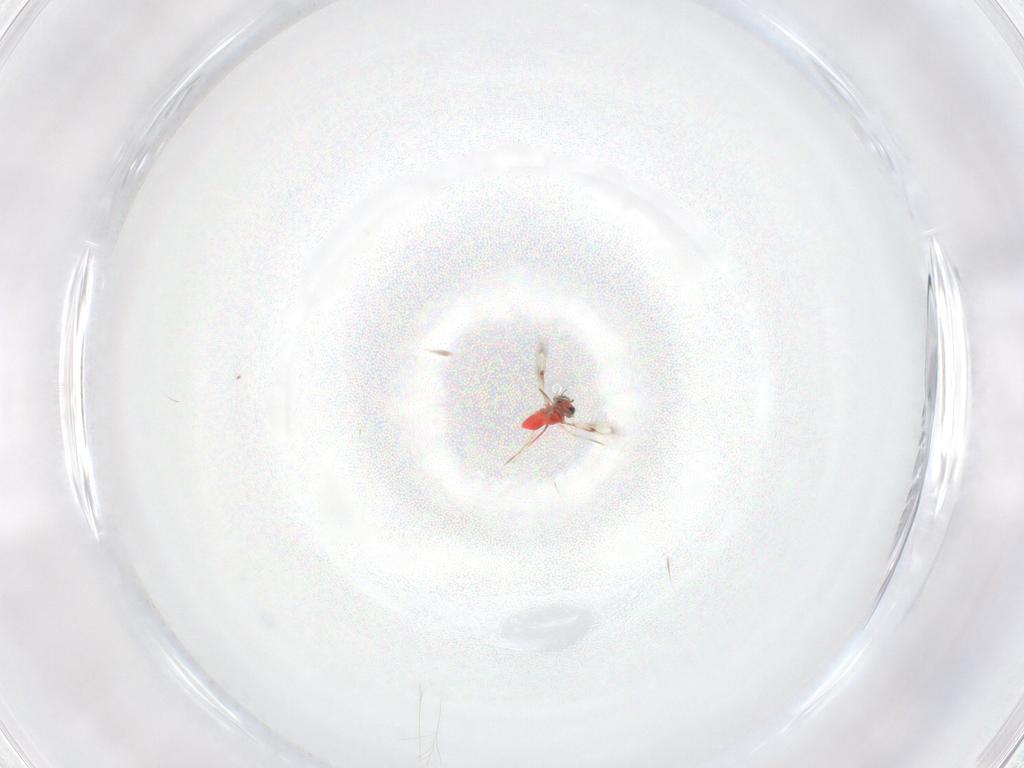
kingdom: Animalia
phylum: Arthropoda
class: Insecta
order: Hymenoptera
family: Trichogrammatidae
